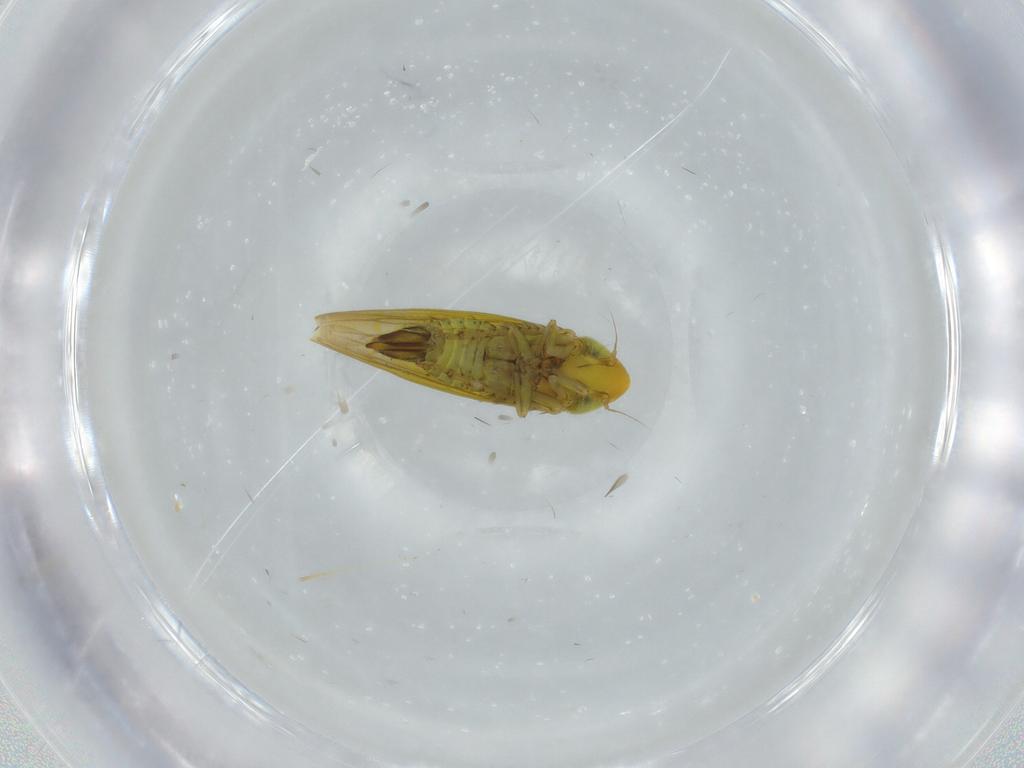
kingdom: Animalia
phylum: Arthropoda
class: Insecta
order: Hemiptera
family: Cicadellidae
